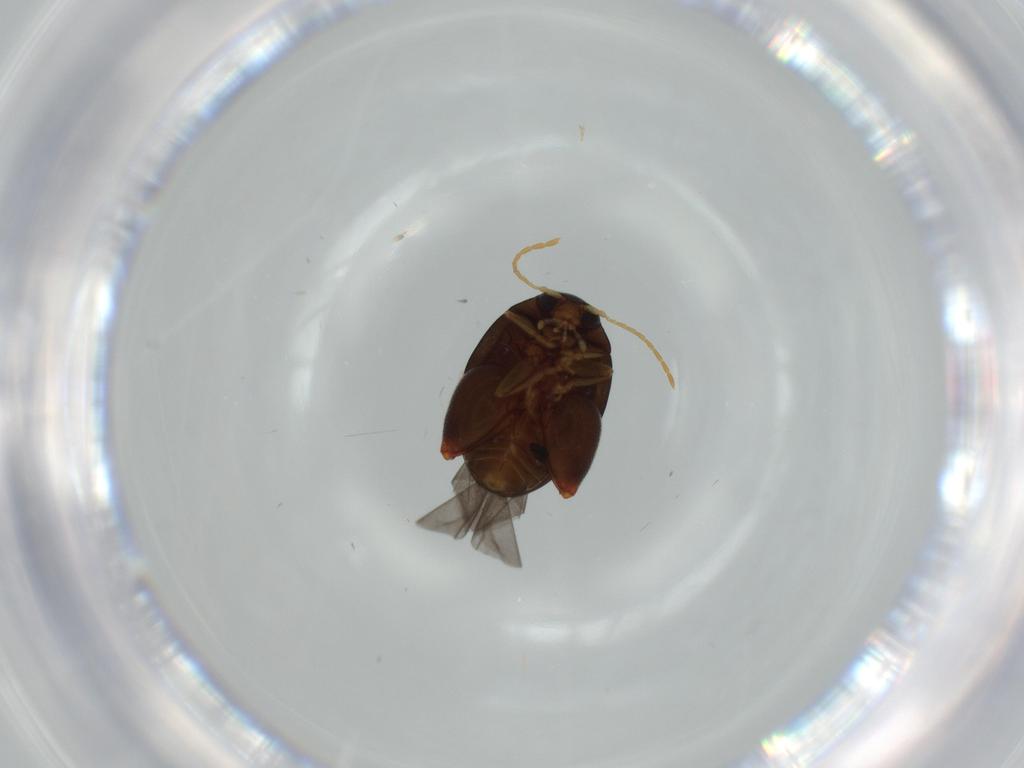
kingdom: Animalia
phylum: Arthropoda
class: Insecta
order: Coleoptera
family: Chrysomelidae
